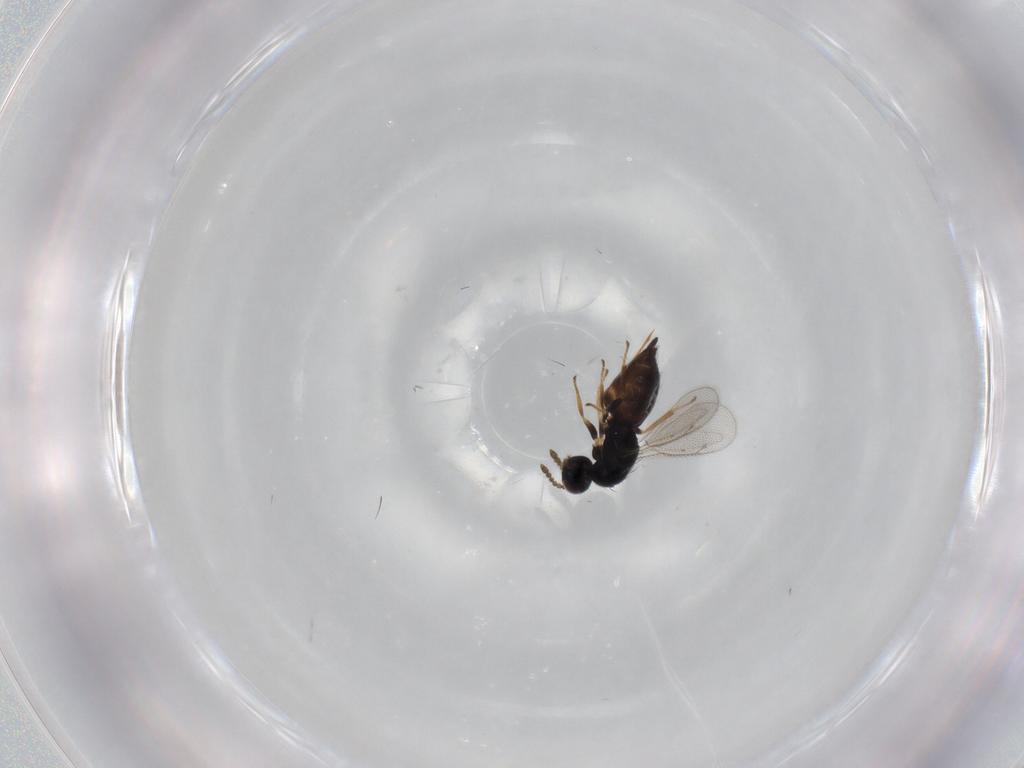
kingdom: Animalia
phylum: Arthropoda
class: Insecta
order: Hymenoptera
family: Eulophidae
